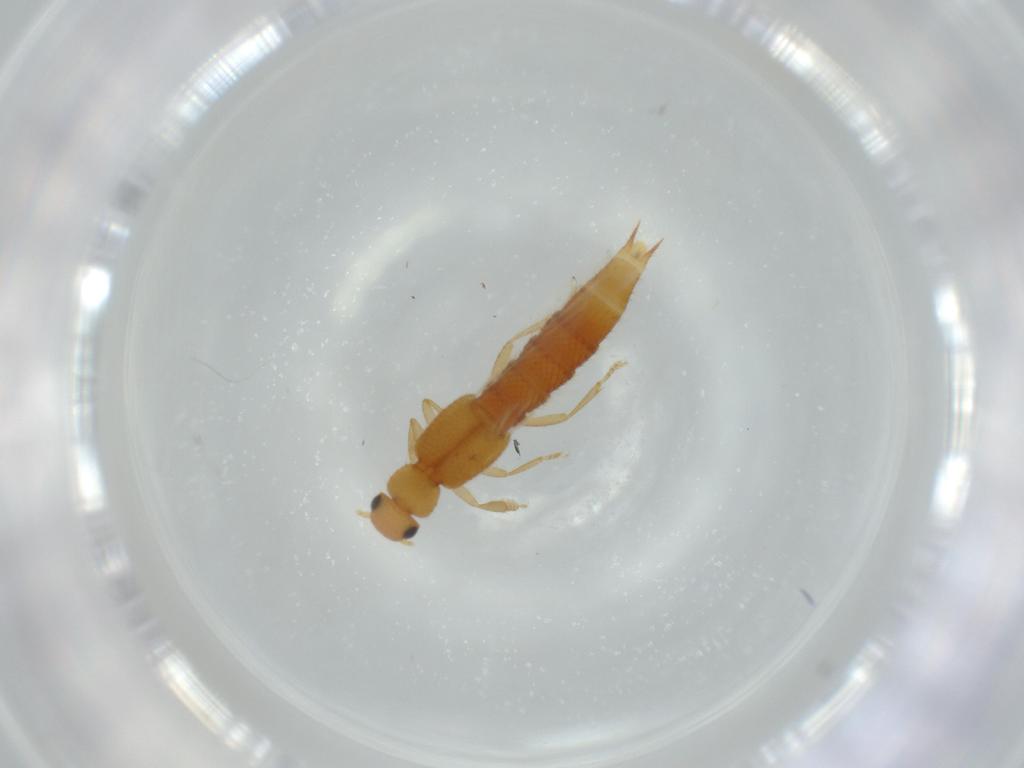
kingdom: Animalia
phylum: Arthropoda
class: Insecta
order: Coleoptera
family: Staphylinidae
